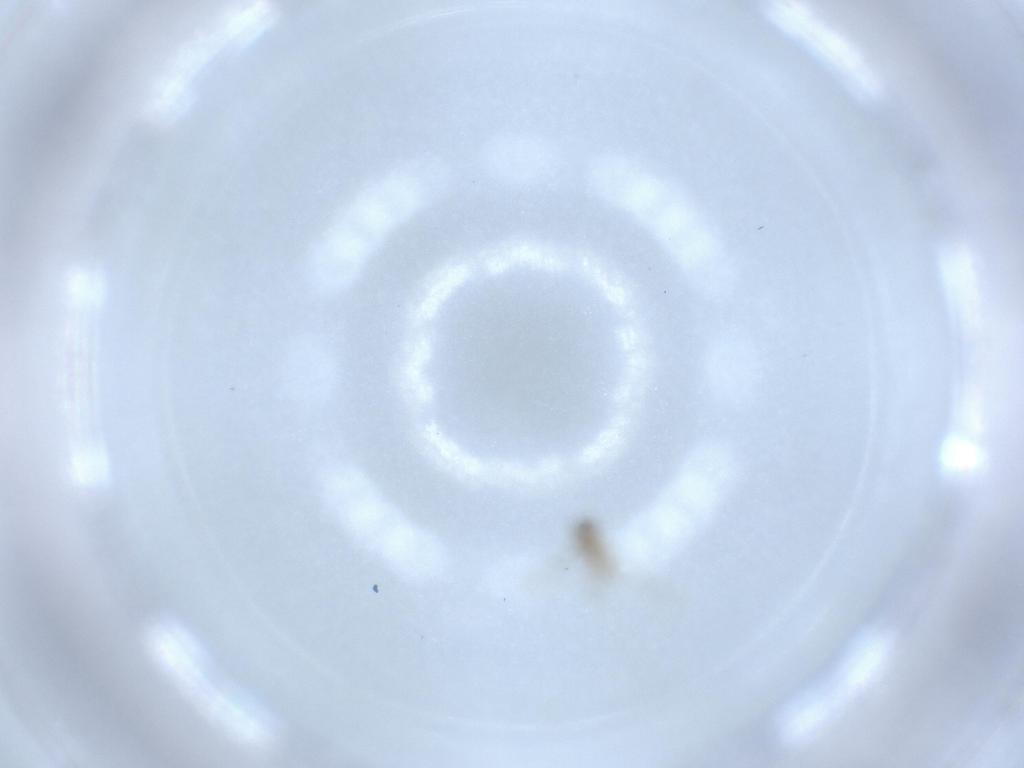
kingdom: Animalia
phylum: Arthropoda
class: Insecta
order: Diptera
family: Cecidomyiidae
